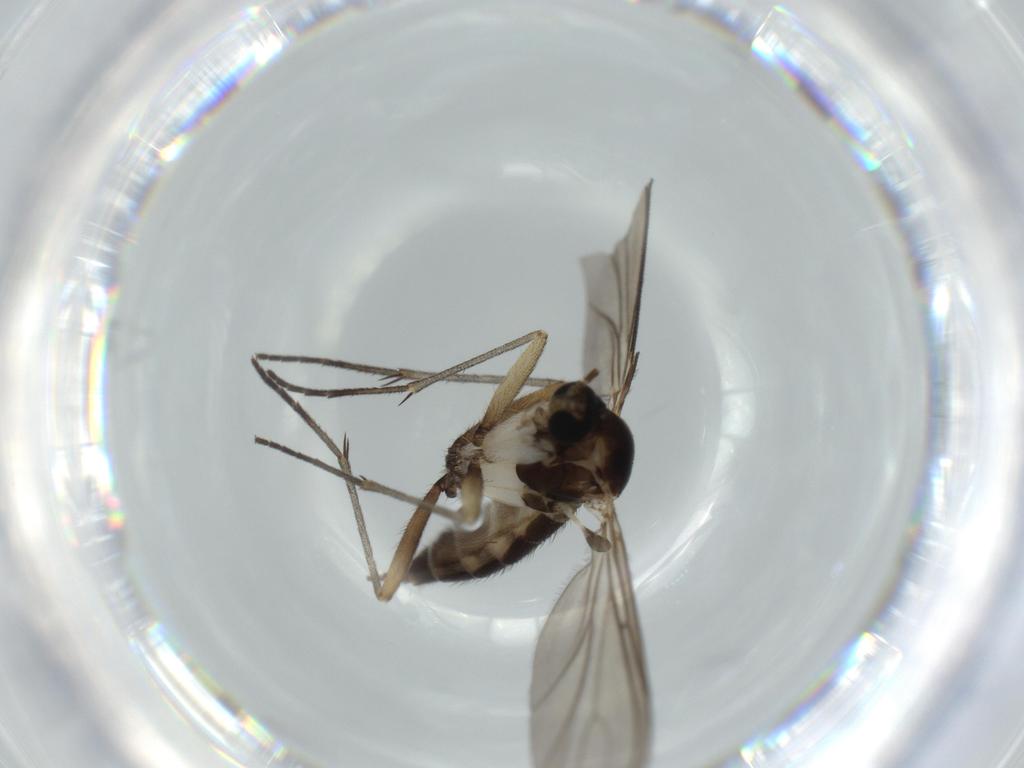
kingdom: Animalia
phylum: Arthropoda
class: Insecta
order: Diptera
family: Sciaridae
